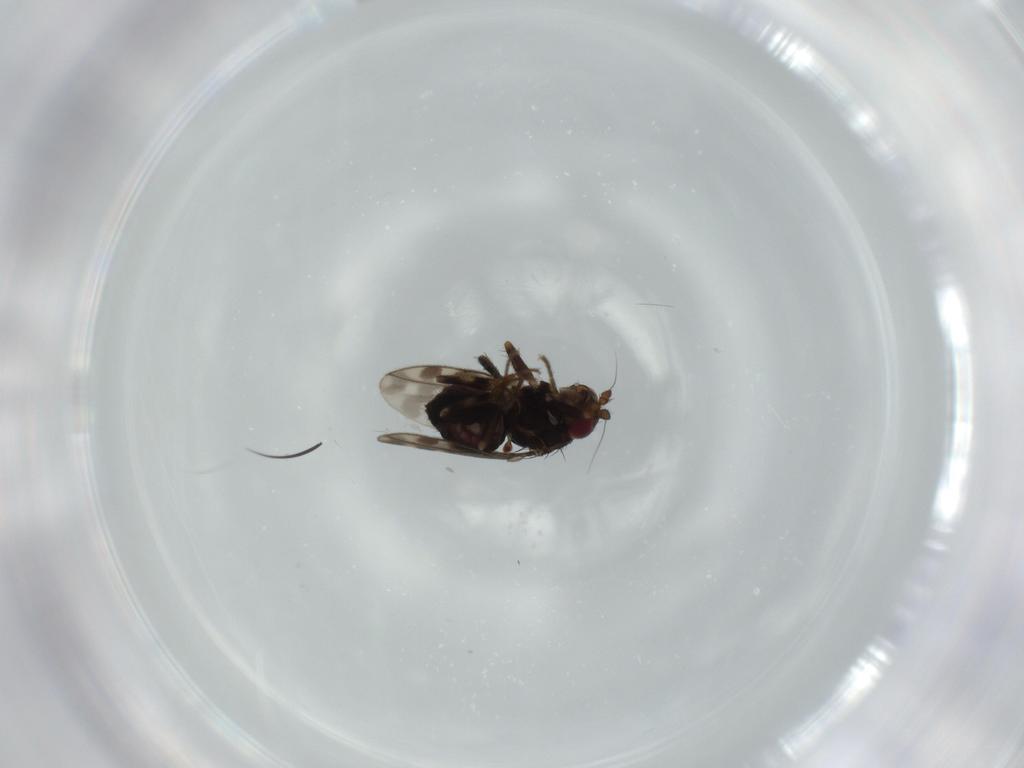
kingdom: Animalia
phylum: Arthropoda
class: Insecta
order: Diptera
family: Sphaeroceridae
